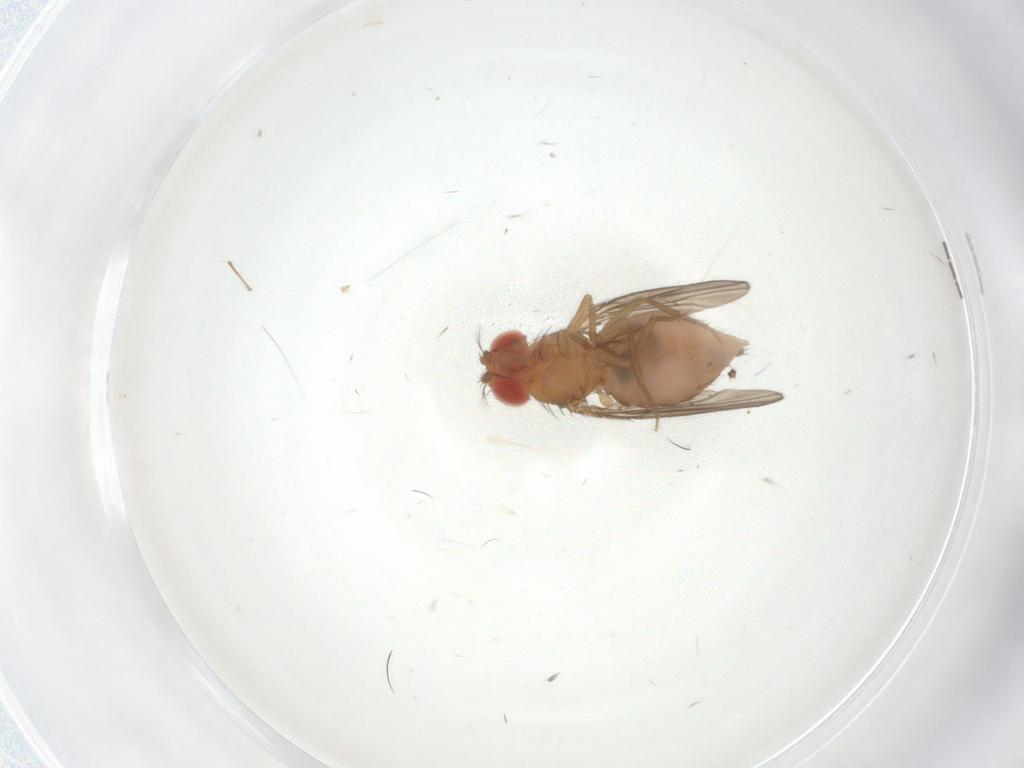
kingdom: Animalia
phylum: Arthropoda
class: Insecta
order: Diptera
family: Drosophilidae
